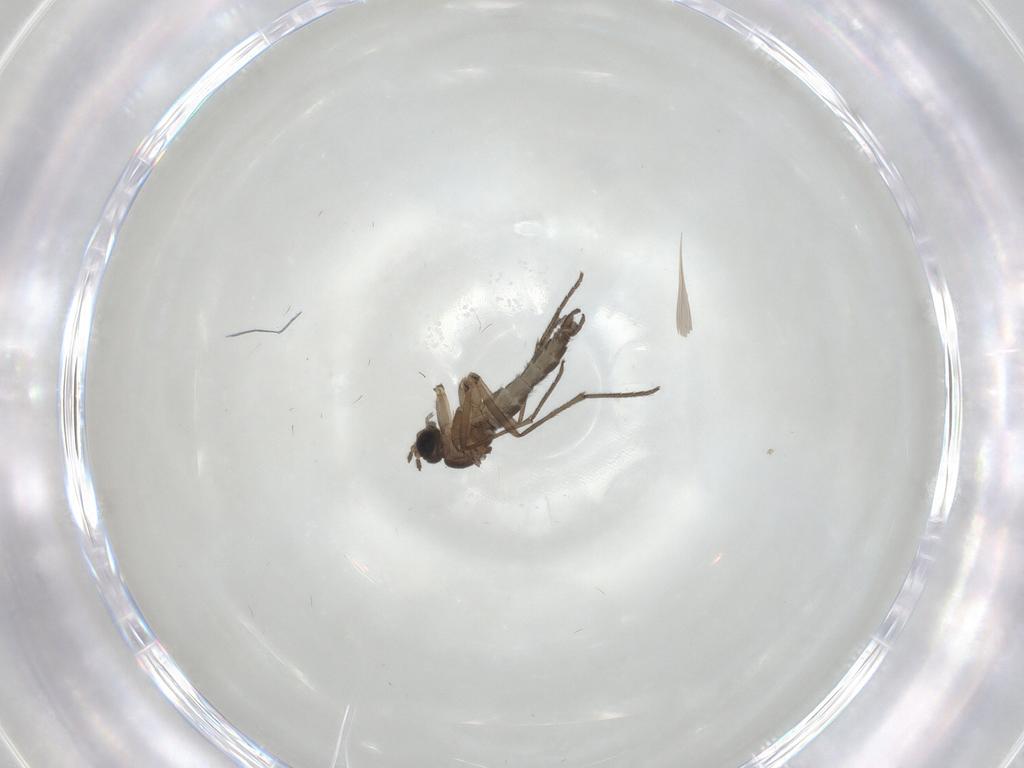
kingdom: Animalia
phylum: Arthropoda
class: Insecta
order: Diptera
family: Sciaridae
